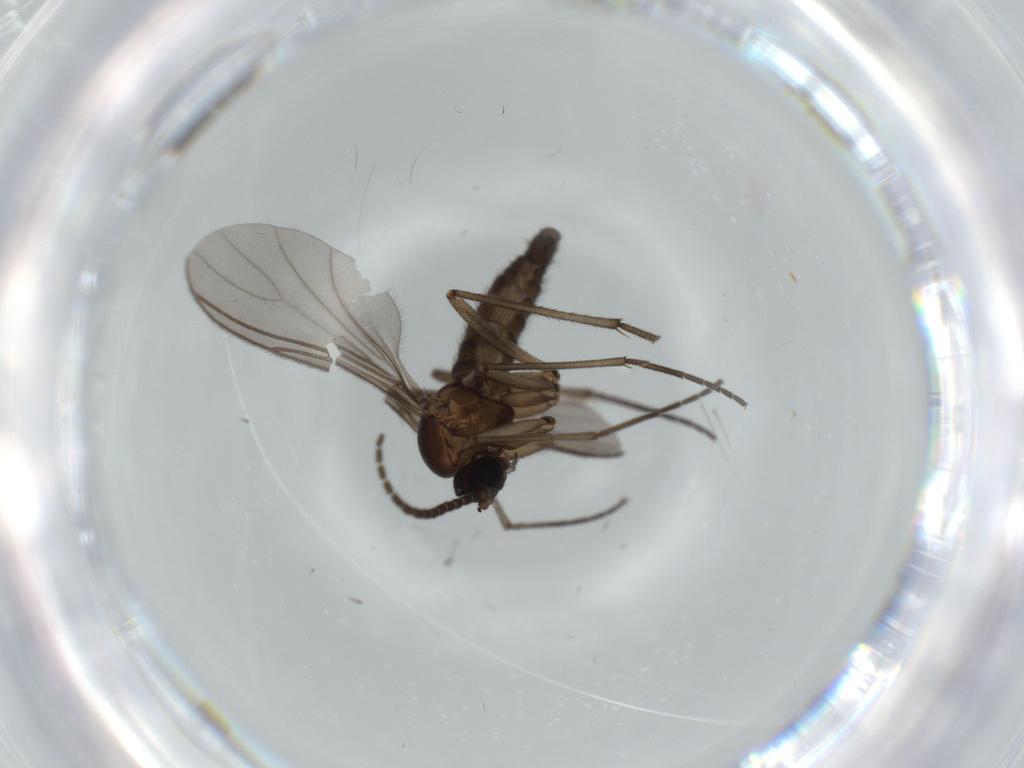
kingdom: Animalia
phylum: Arthropoda
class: Insecta
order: Diptera
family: Sciaridae
